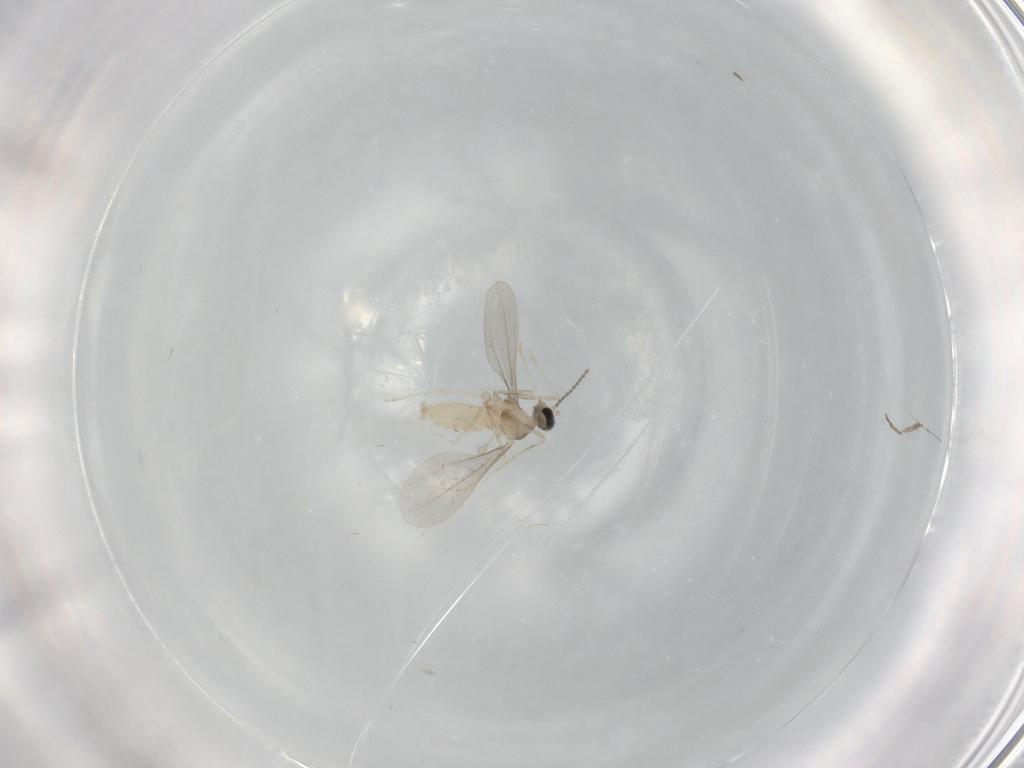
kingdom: Animalia
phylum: Arthropoda
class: Insecta
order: Diptera
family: Cecidomyiidae
